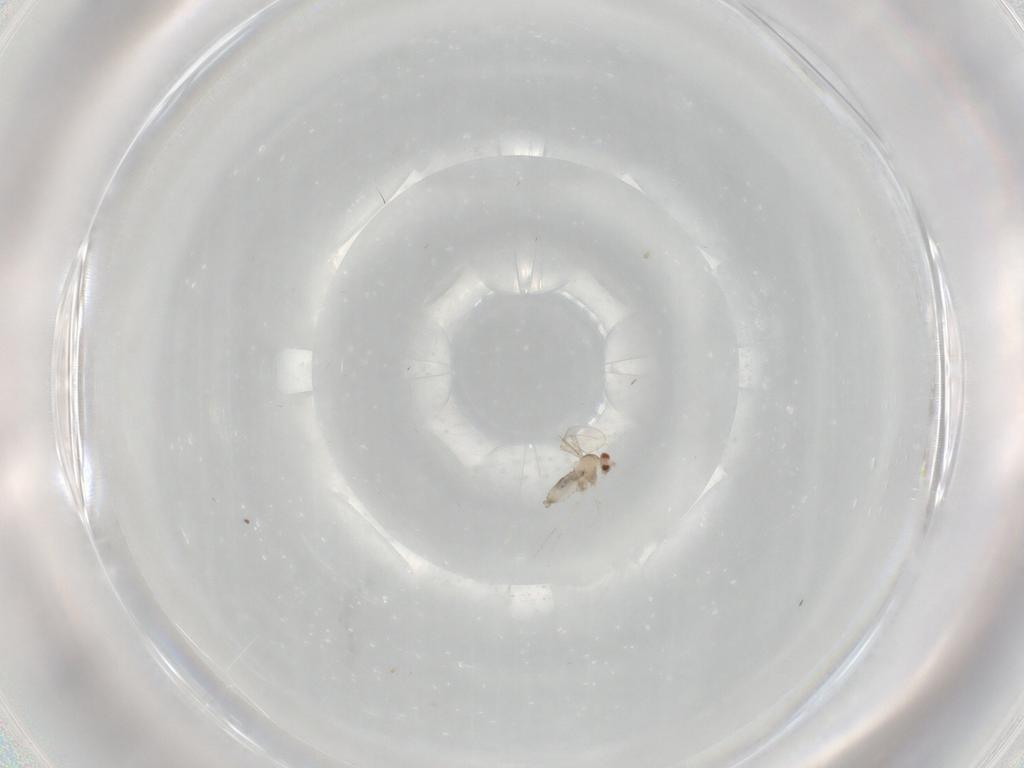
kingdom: Animalia
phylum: Arthropoda
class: Insecta
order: Diptera
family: Cecidomyiidae
